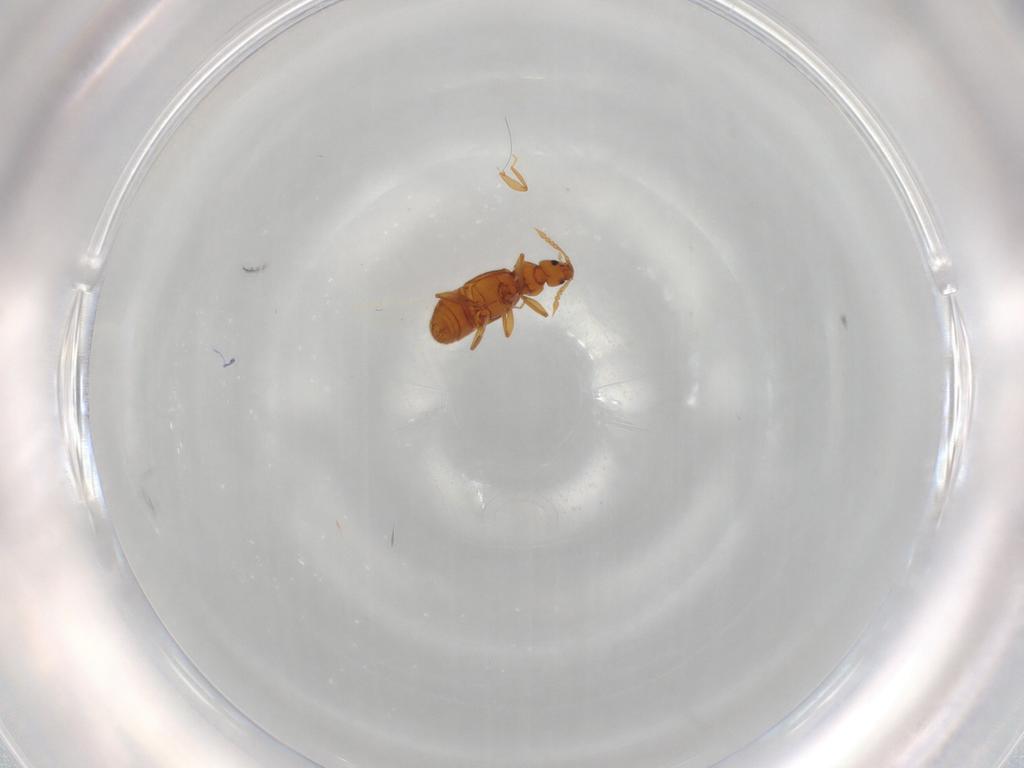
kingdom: Animalia
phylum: Arthropoda
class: Insecta
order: Coleoptera
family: Staphylinidae
